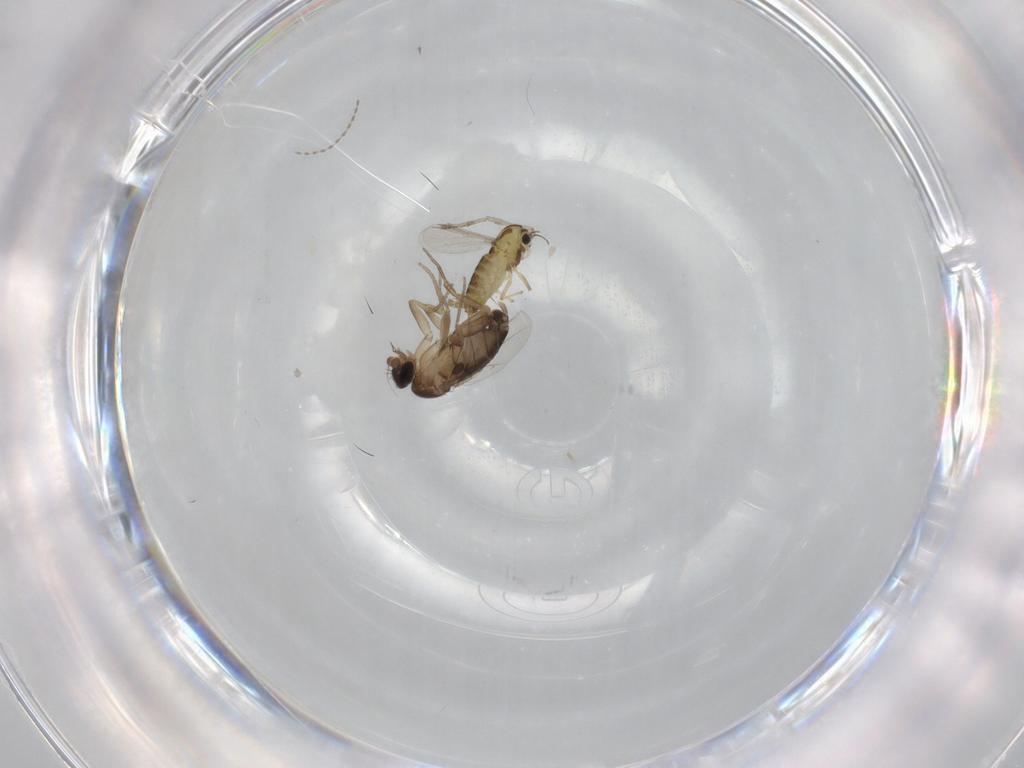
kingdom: Animalia
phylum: Arthropoda
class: Insecta
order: Diptera
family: Chironomidae
